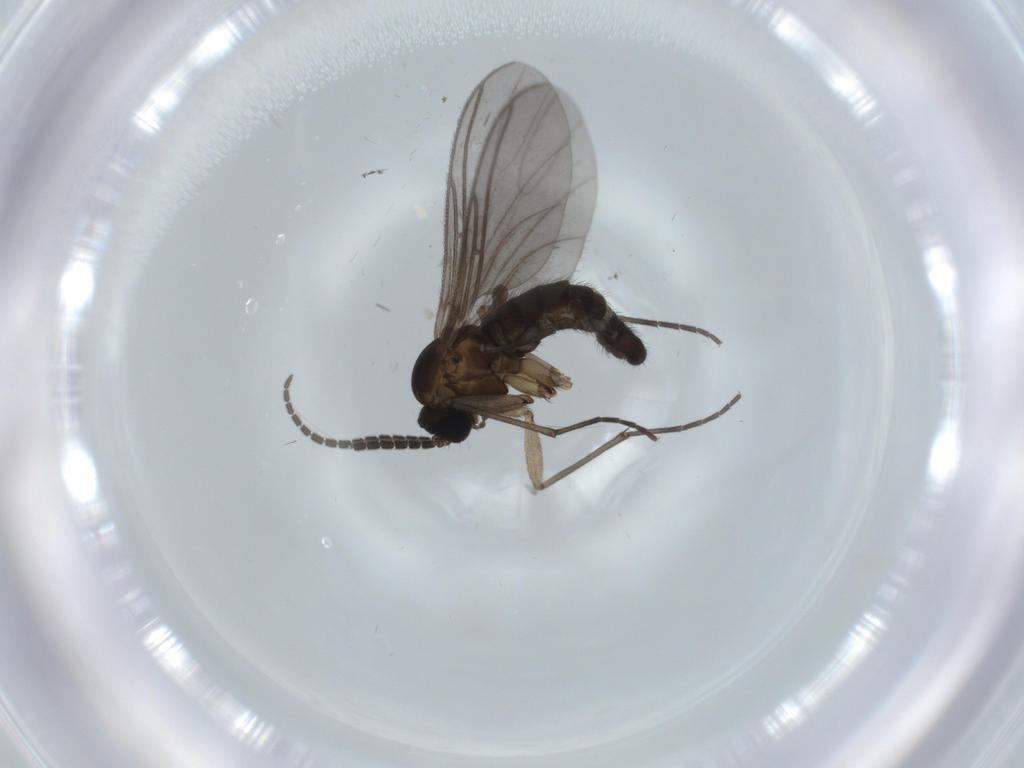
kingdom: Animalia
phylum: Arthropoda
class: Insecta
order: Diptera
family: Sciaridae
